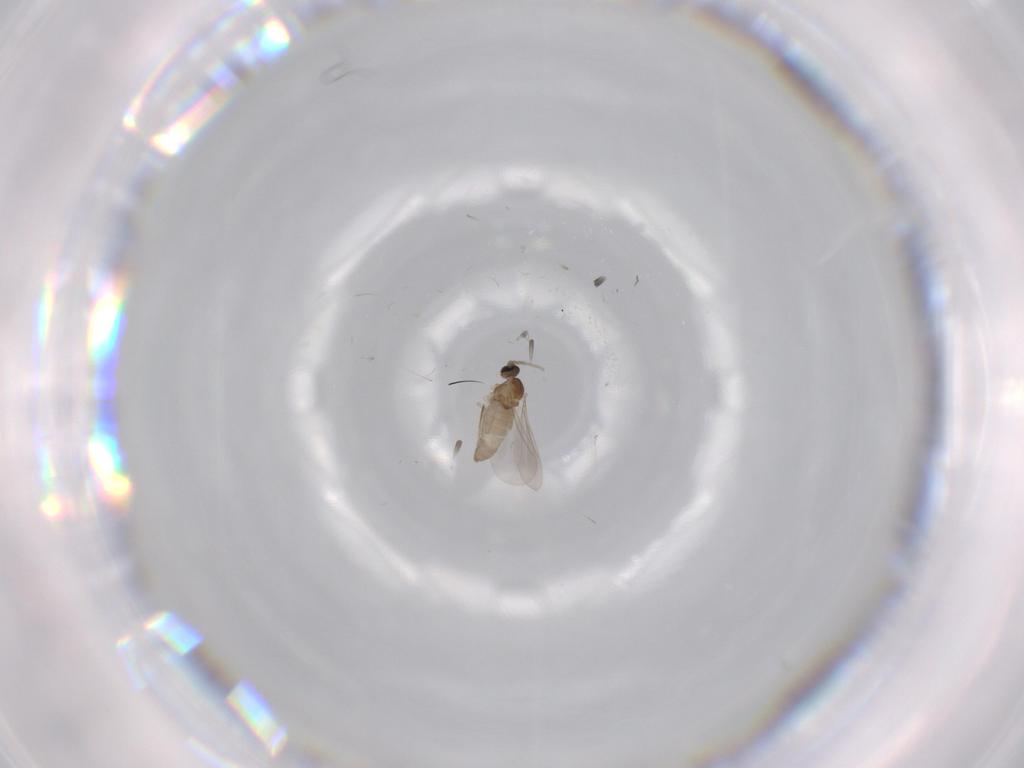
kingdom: Animalia
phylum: Arthropoda
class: Insecta
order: Diptera
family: Cecidomyiidae
